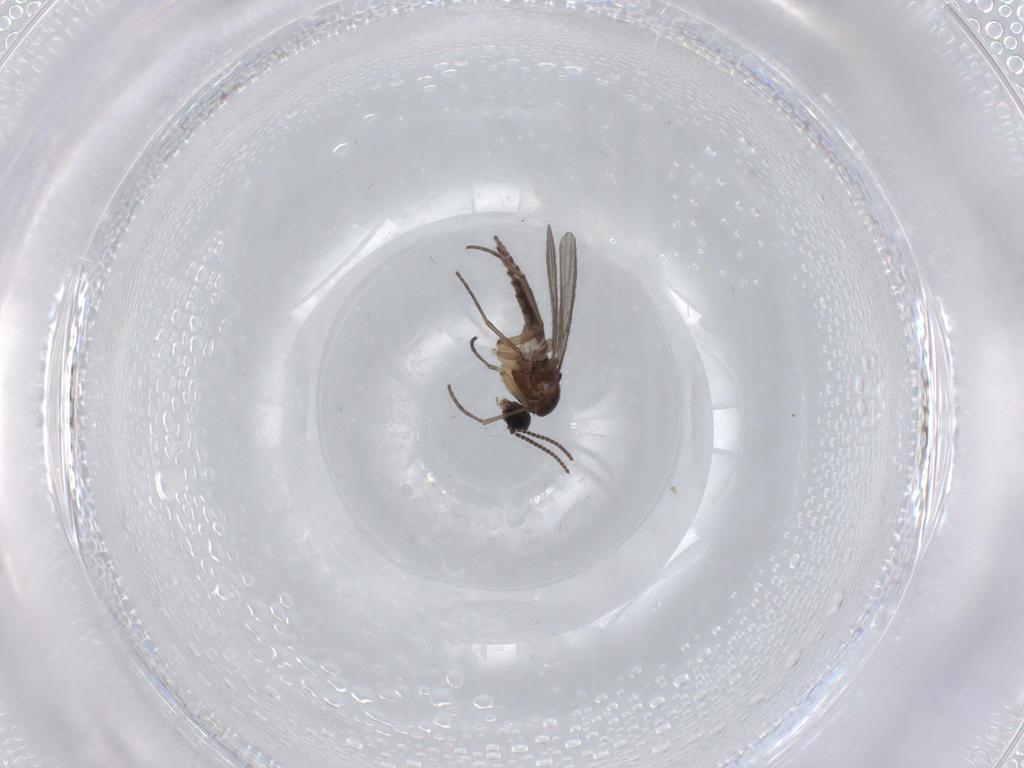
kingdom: Animalia
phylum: Arthropoda
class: Insecta
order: Diptera
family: Sciaridae
